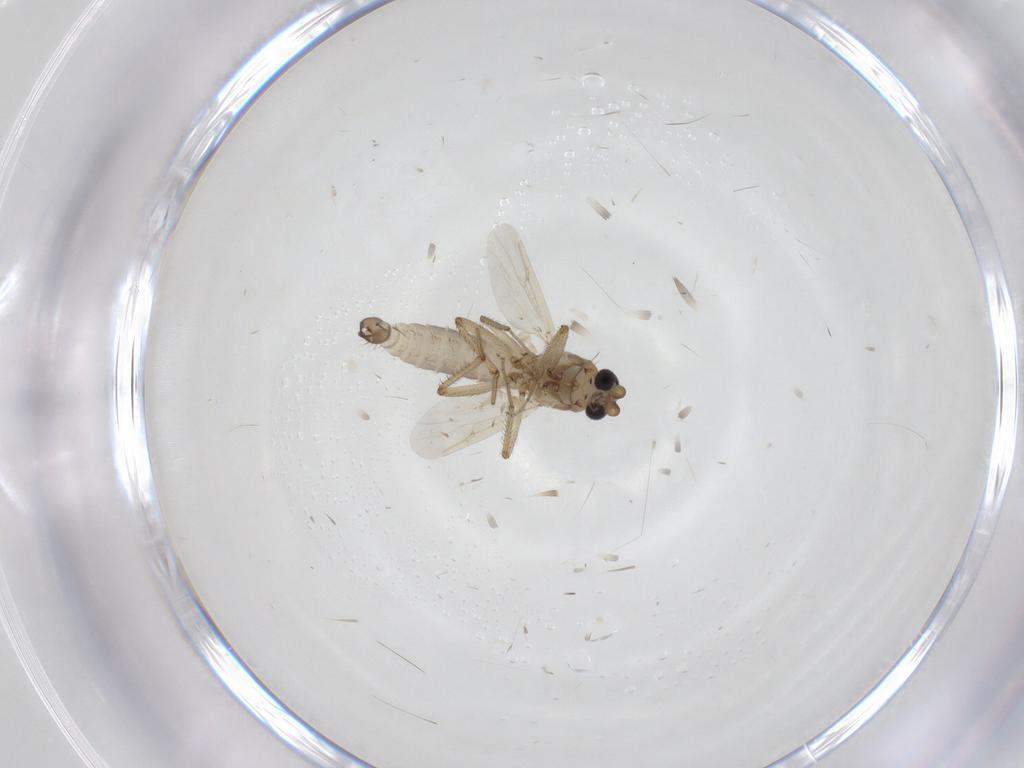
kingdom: Animalia
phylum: Arthropoda
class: Insecta
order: Diptera
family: Ceratopogonidae
